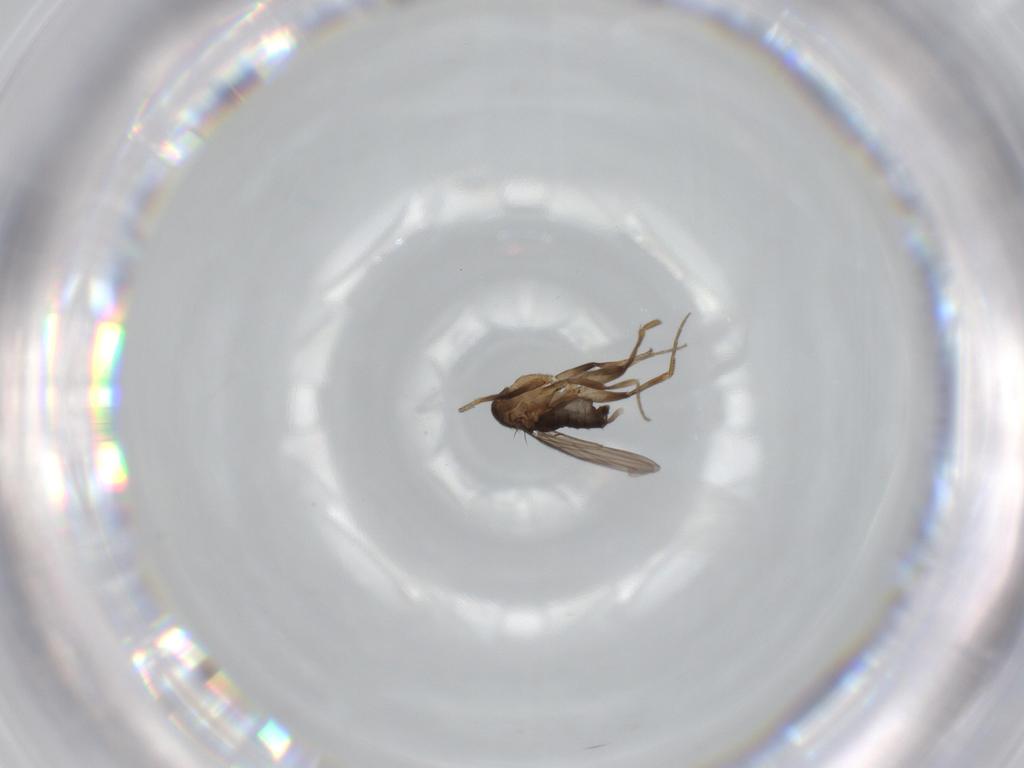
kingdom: Animalia
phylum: Arthropoda
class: Insecta
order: Diptera
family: Phoridae
